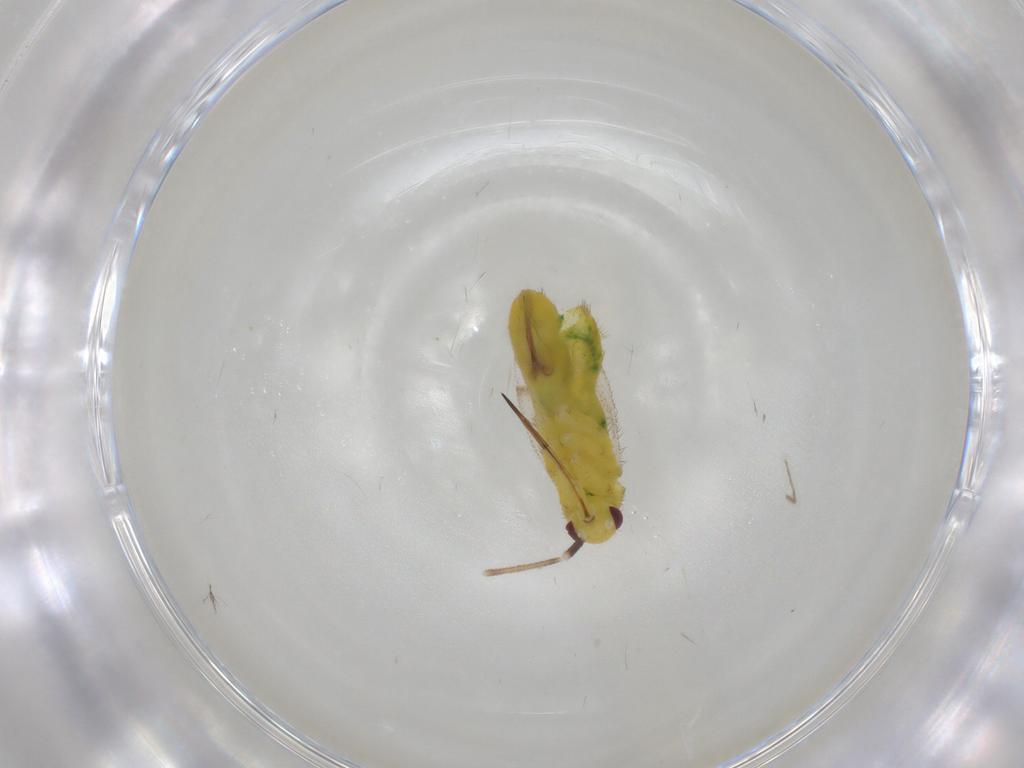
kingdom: Animalia
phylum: Arthropoda
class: Insecta
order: Hemiptera
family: Miridae
